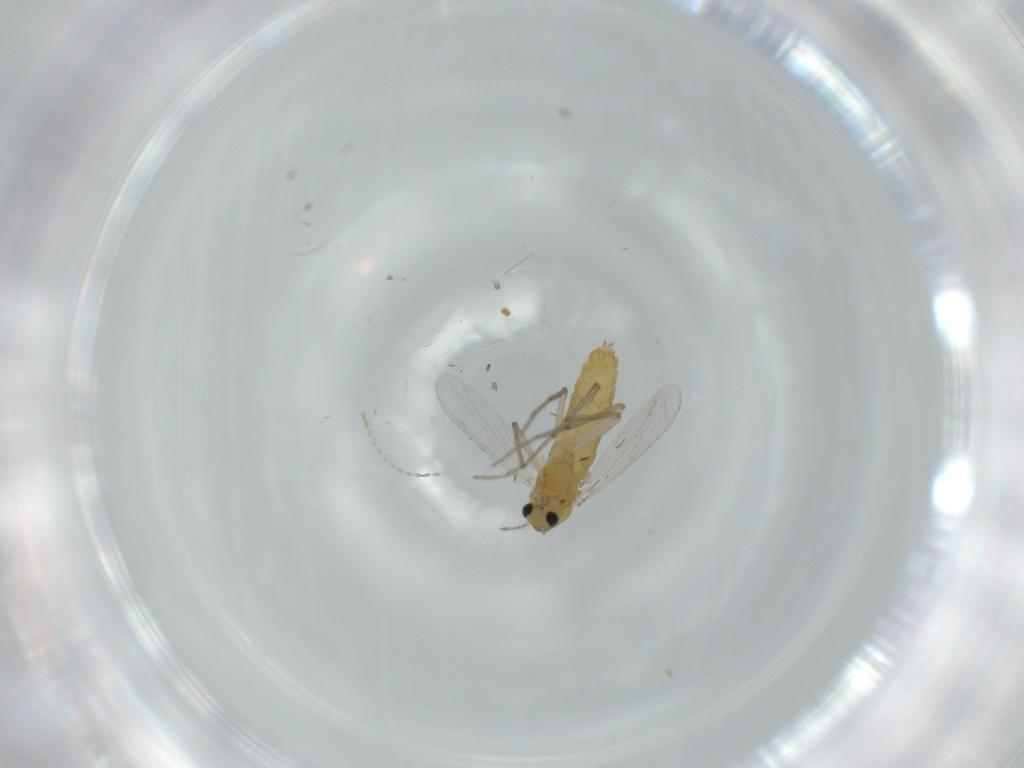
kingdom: Animalia
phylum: Arthropoda
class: Insecta
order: Diptera
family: Chironomidae
